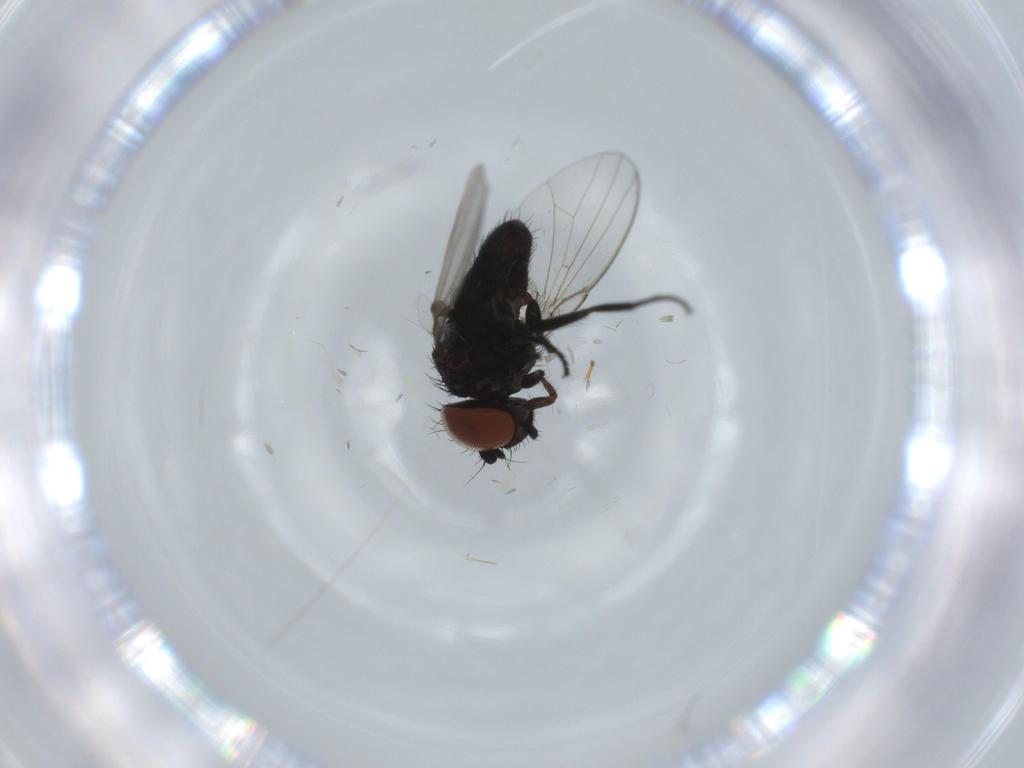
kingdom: Animalia
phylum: Arthropoda
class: Insecta
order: Diptera
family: Milichiidae
